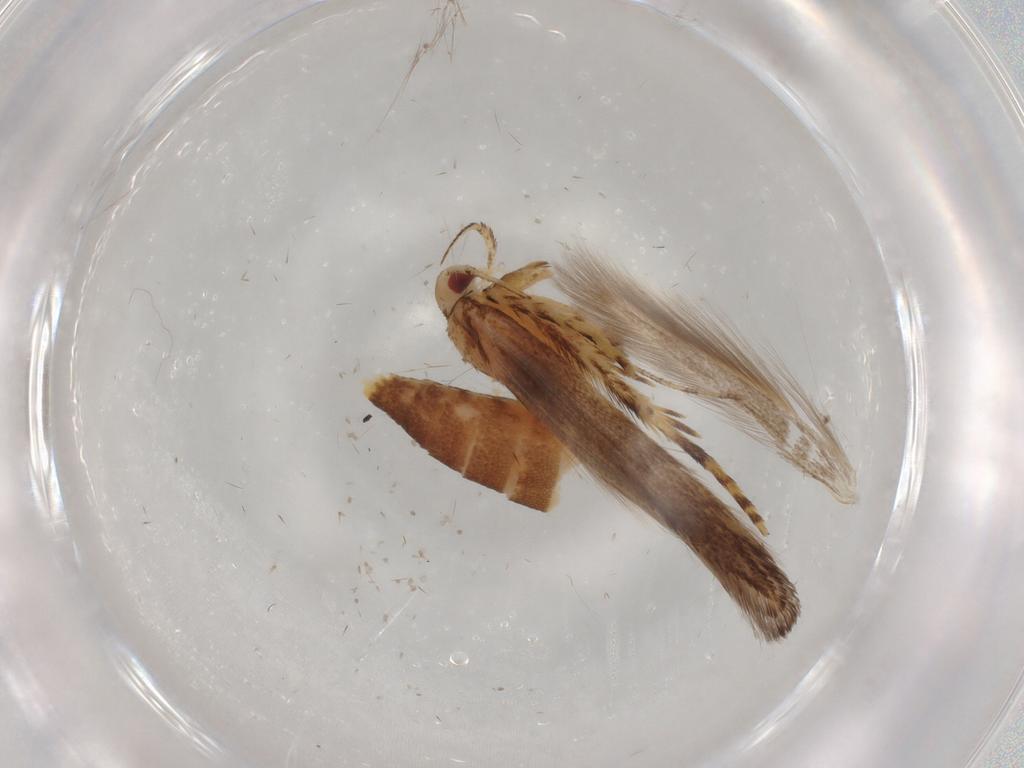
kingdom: Animalia
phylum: Arthropoda
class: Insecta
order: Lepidoptera
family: Cosmopterigidae
